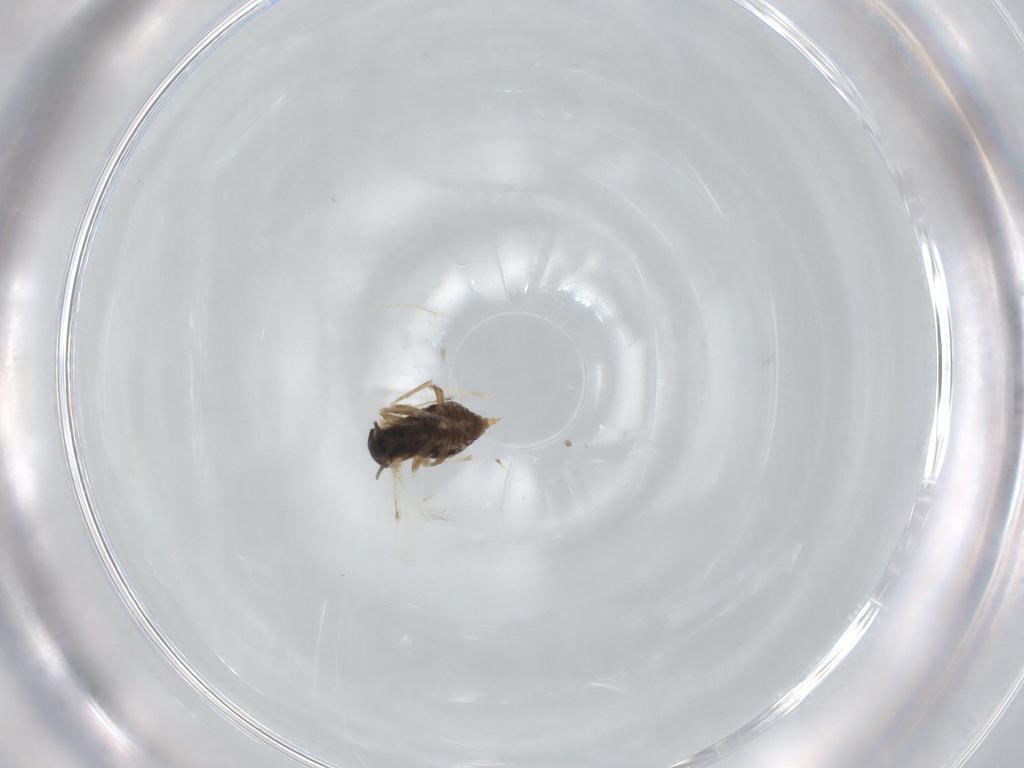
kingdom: Animalia
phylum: Arthropoda
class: Insecta
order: Diptera
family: Cecidomyiidae
